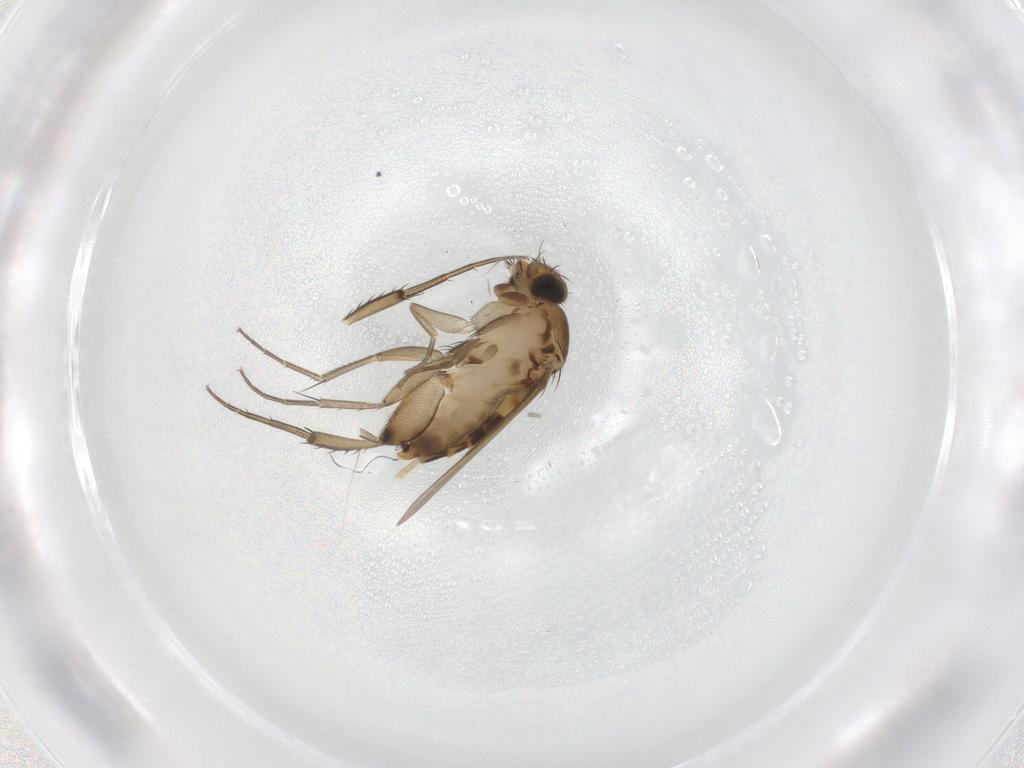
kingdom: Animalia
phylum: Arthropoda
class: Insecta
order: Diptera
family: Phoridae
